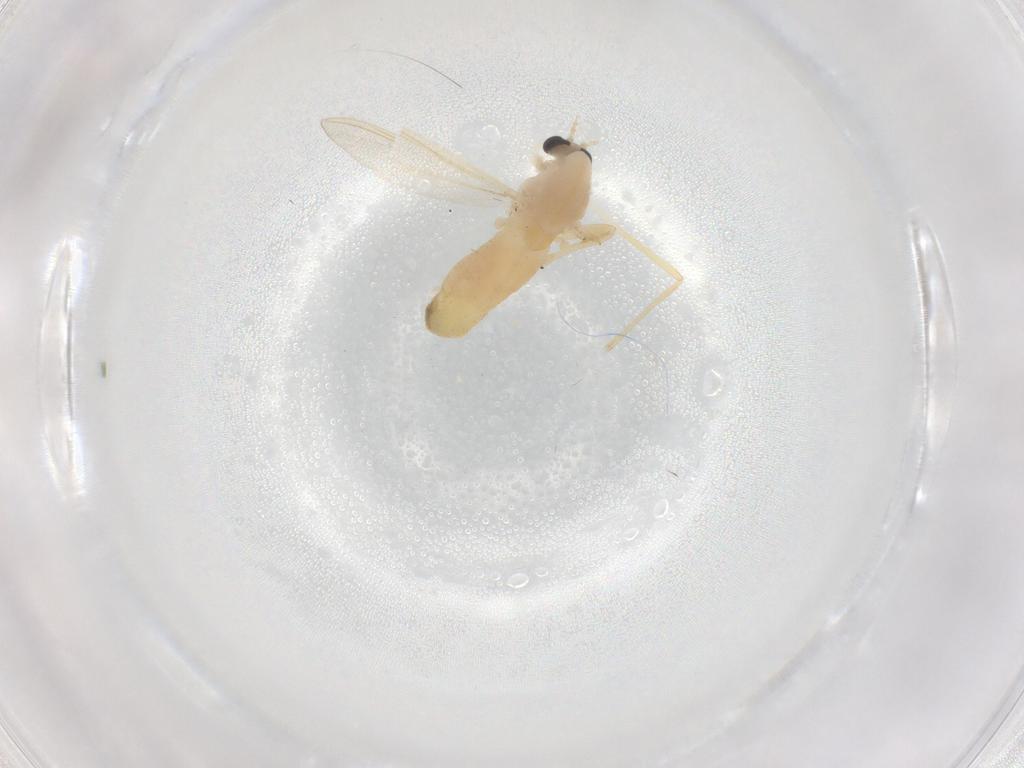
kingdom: Animalia
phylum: Arthropoda
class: Insecta
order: Diptera
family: Chironomidae
